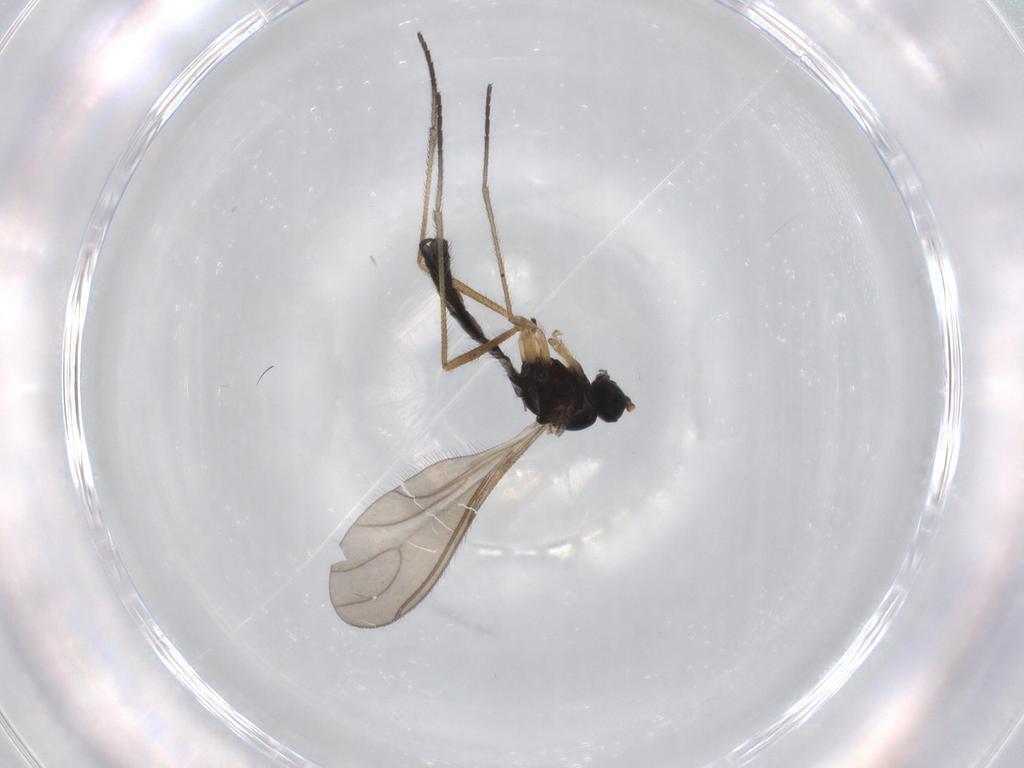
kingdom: Animalia
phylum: Arthropoda
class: Insecta
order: Diptera
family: Sciaridae
